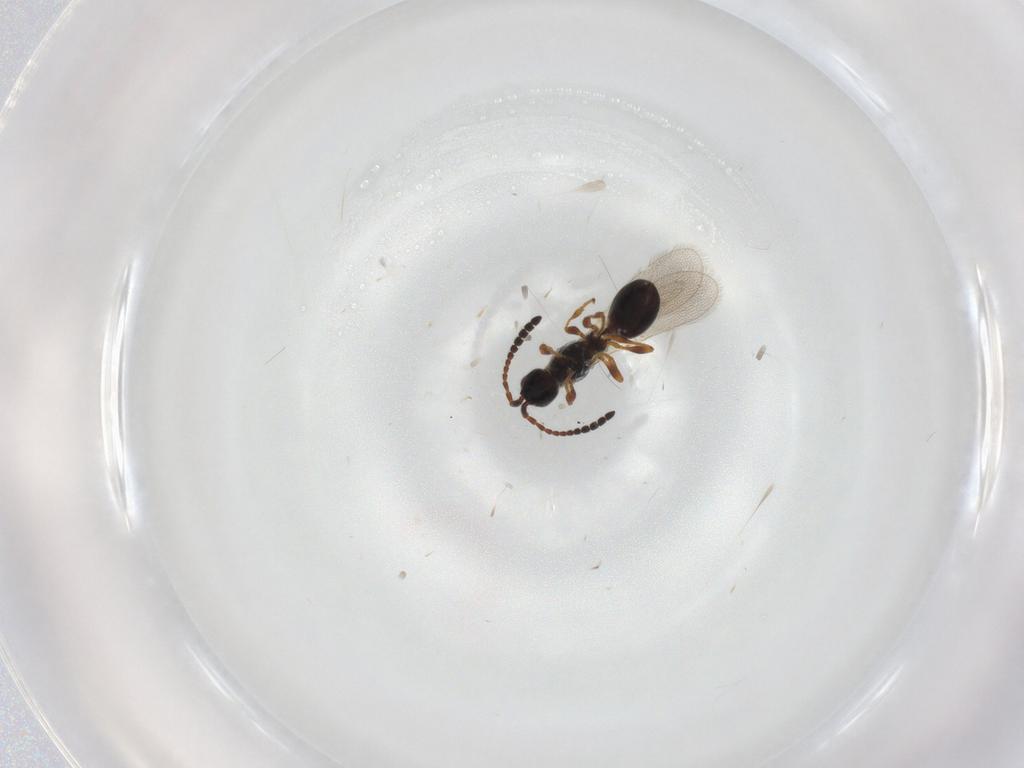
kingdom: Animalia
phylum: Arthropoda
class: Insecta
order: Hymenoptera
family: Diapriidae
